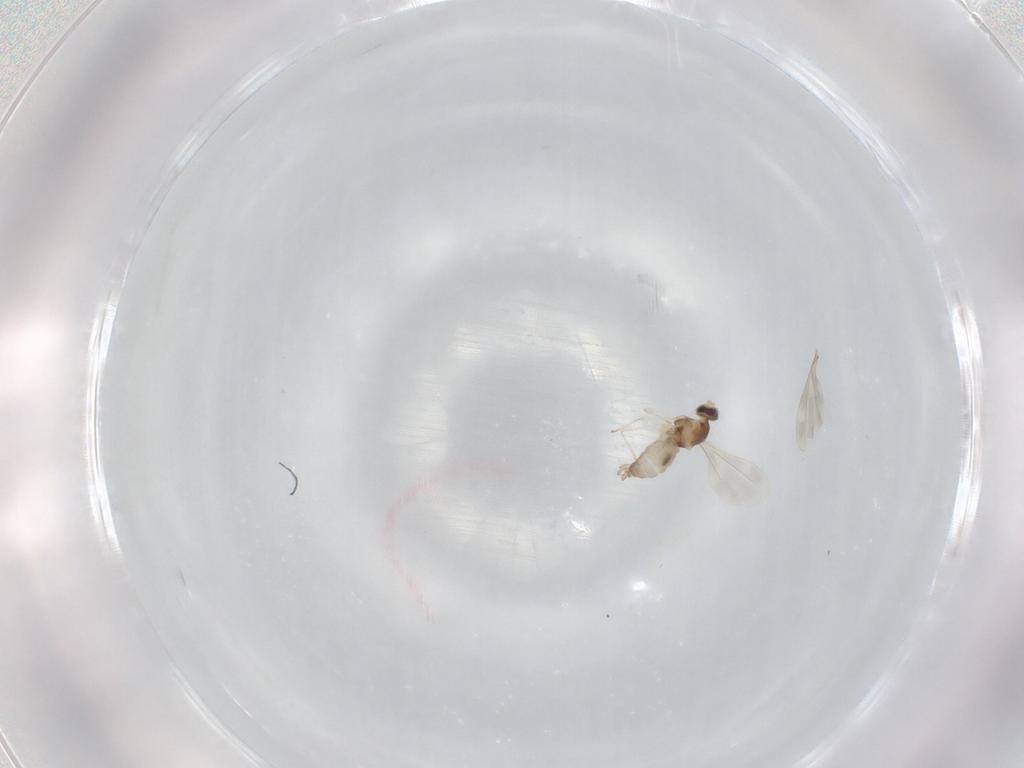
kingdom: Animalia
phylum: Arthropoda
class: Insecta
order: Diptera
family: Cecidomyiidae
